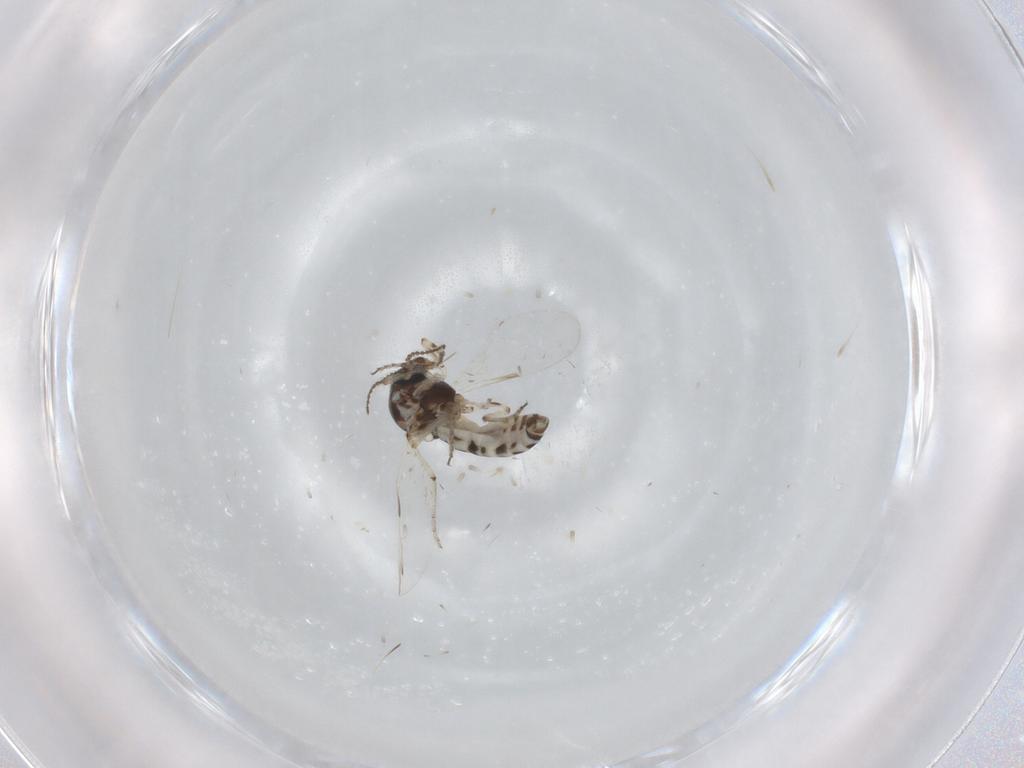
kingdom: Animalia
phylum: Arthropoda
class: Insecta
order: Diptera
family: Ceratopogonidae
